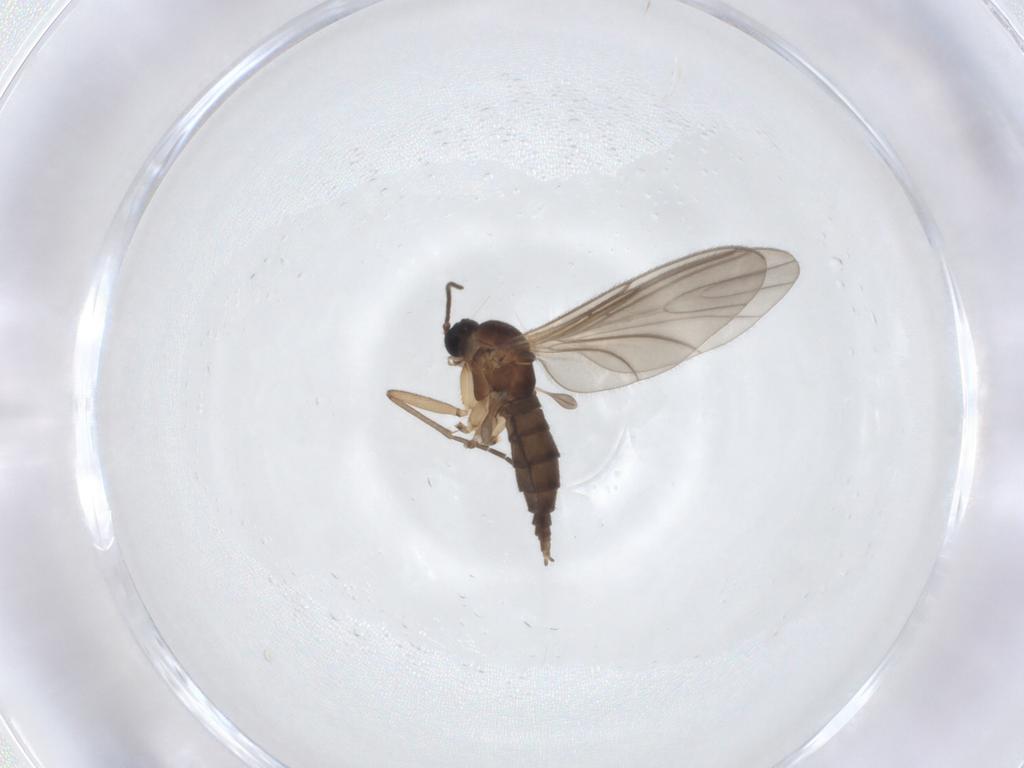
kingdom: Animalia
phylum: Arthropoda
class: Insecta
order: Diptera
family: Sciaridae
